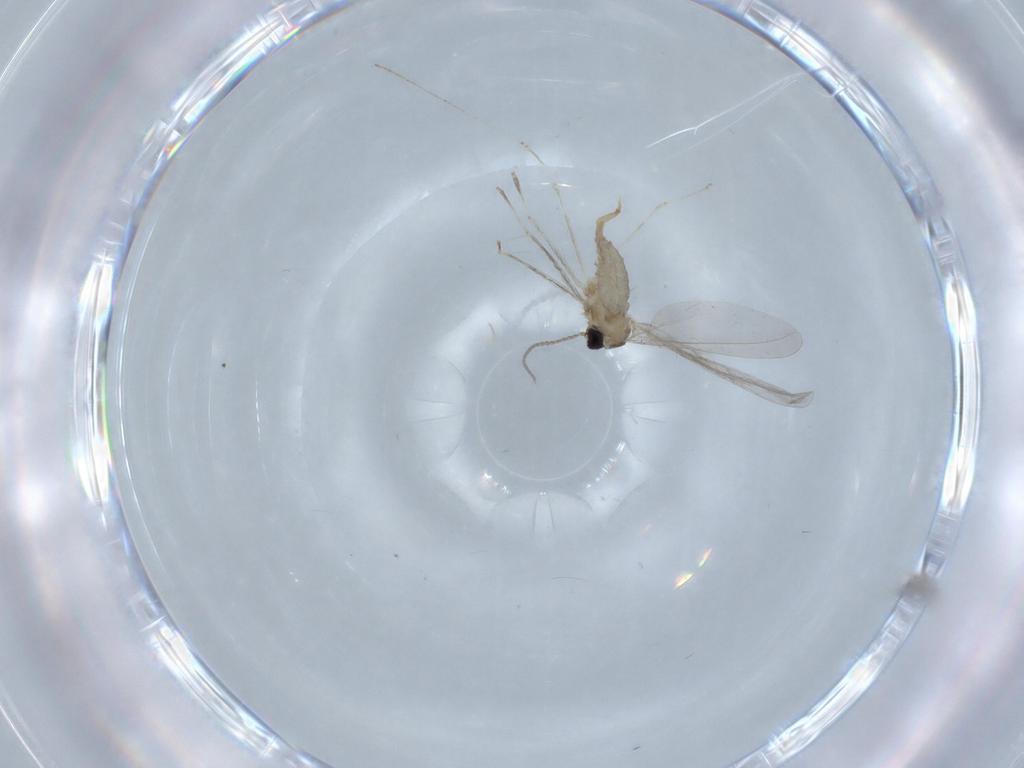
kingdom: Animalia
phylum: Arthropoda
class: Insecta
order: Diptera
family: Cecidomyiidae
